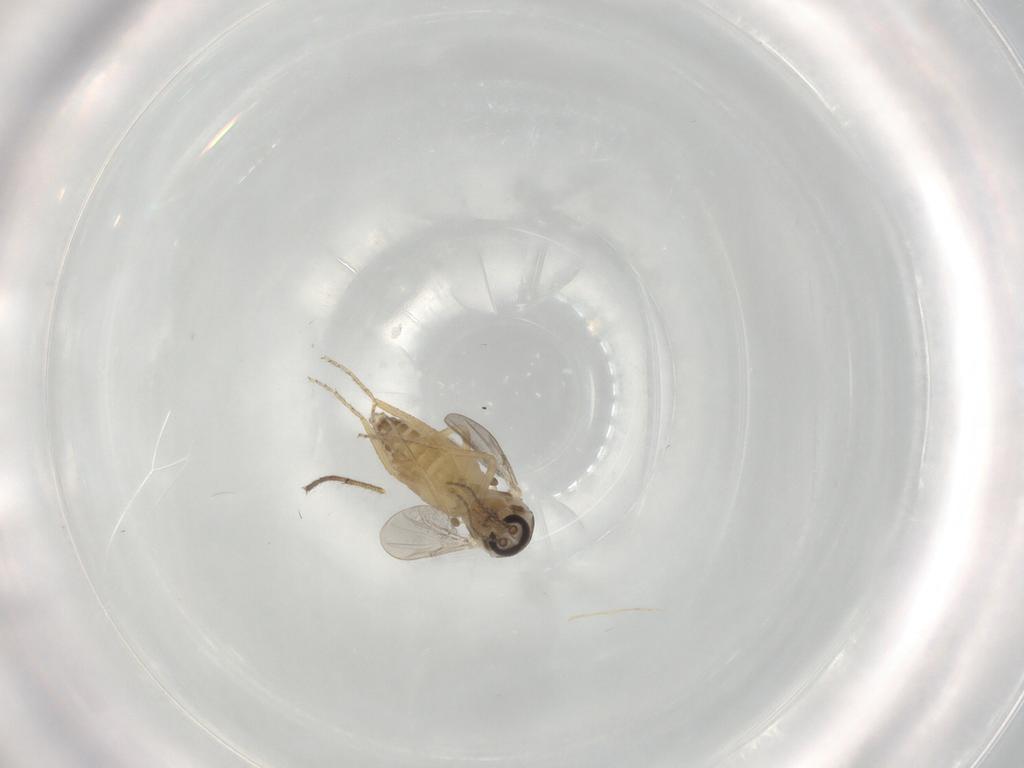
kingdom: Animalia
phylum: Arthropoda
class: Insecta
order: Diptera
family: Ceratopogonidae
